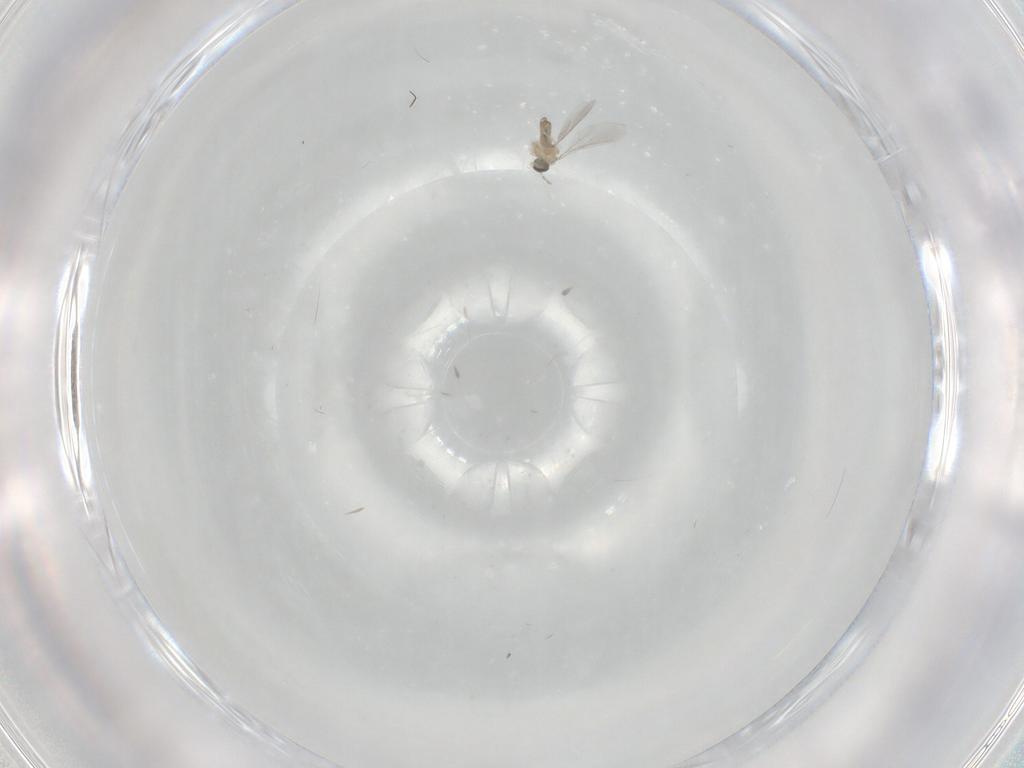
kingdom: Animalia
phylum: Arthropoda
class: Insecta
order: Diptera
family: Cecidomyiidae
